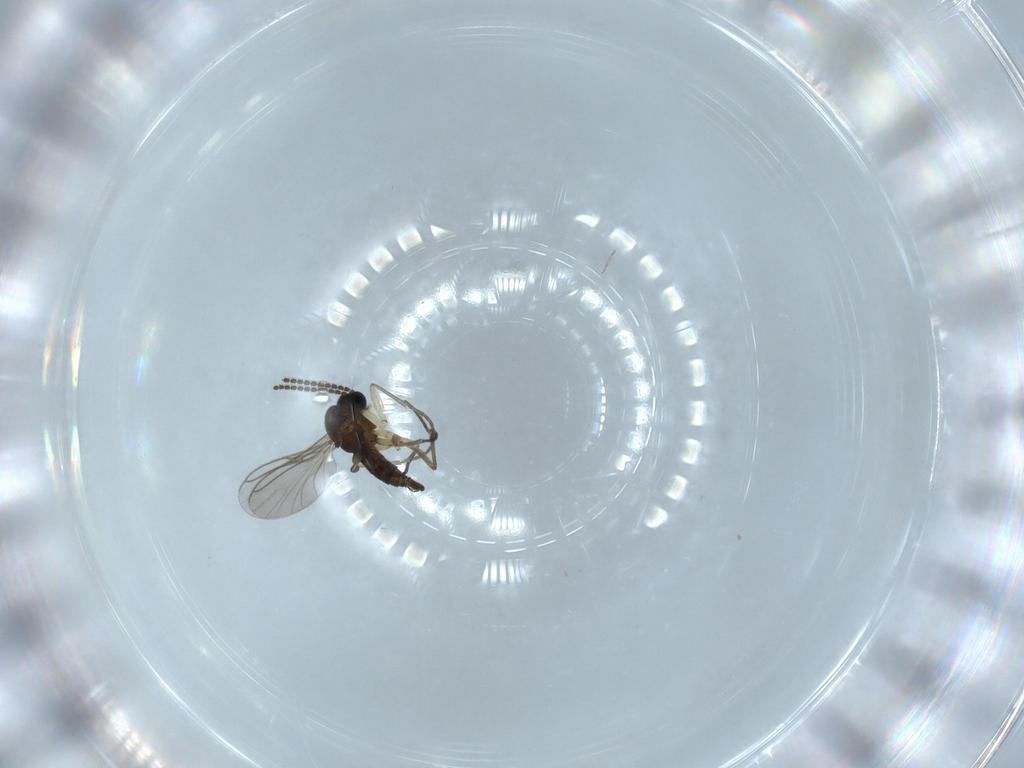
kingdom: Animalia
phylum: Arthropoda
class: Insecta
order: Diptera
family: Sciaridae
